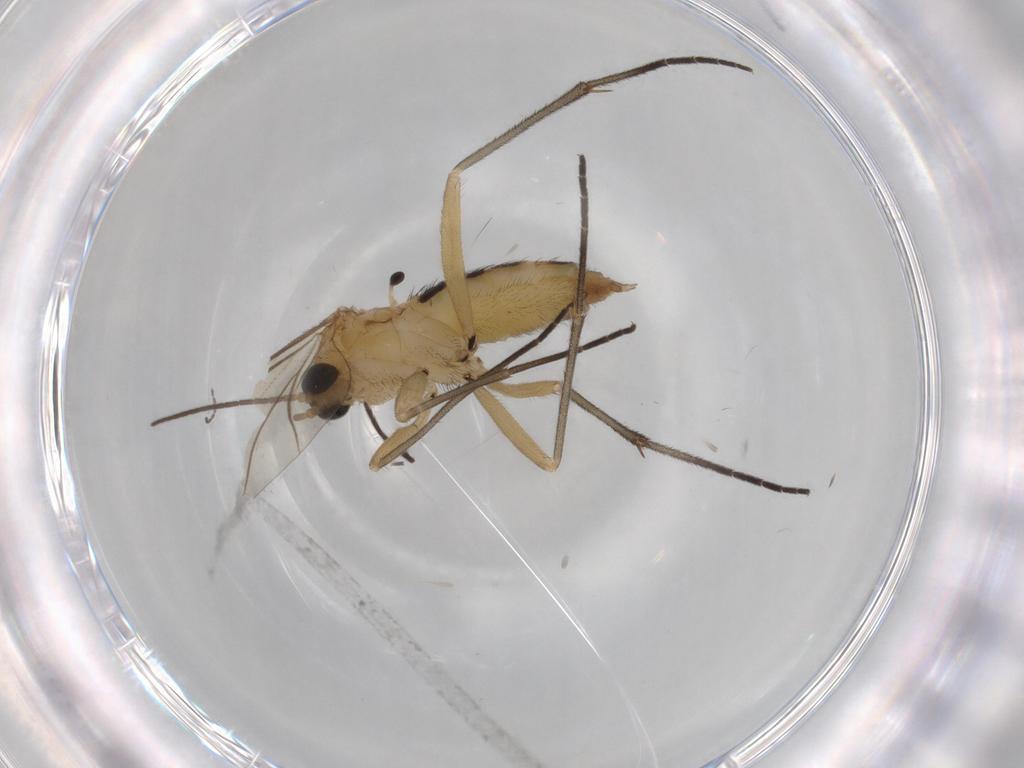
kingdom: Animalia
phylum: Arthropoda
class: Insecta
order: Diptera
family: Sciaridae
